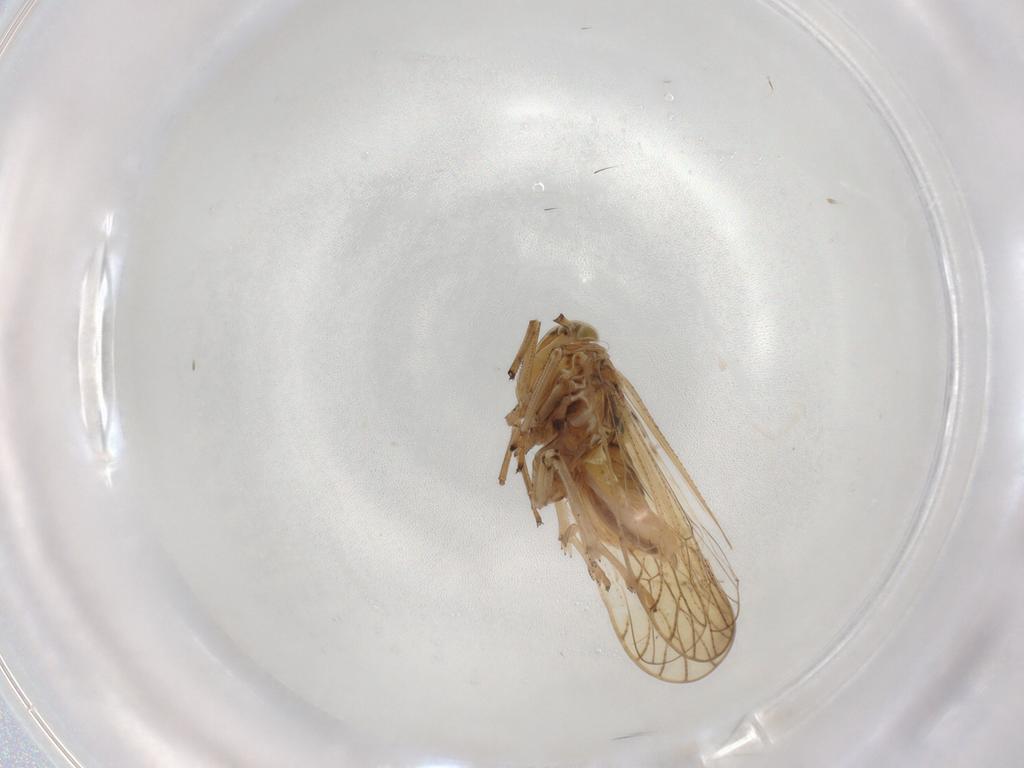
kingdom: Animalia
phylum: Arthropoda
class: Insecta
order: Hemiptera
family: Delphacidae
